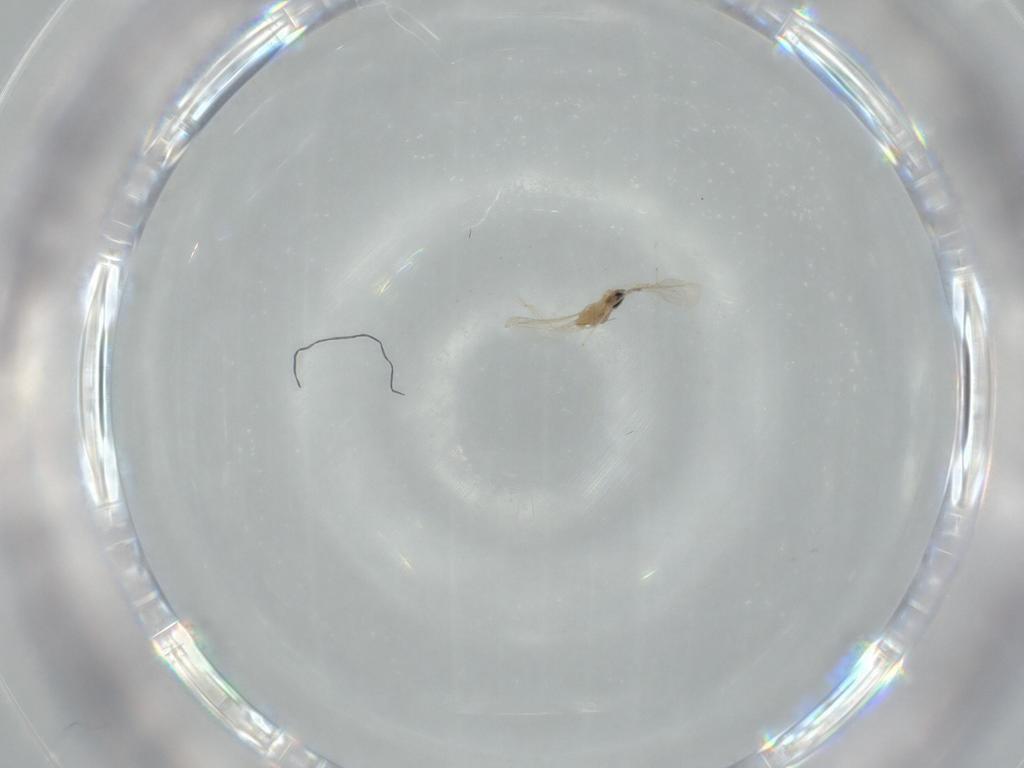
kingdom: Animalia
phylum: Arthropoda
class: Insecta
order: Diptera
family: Cecidomyiidae
